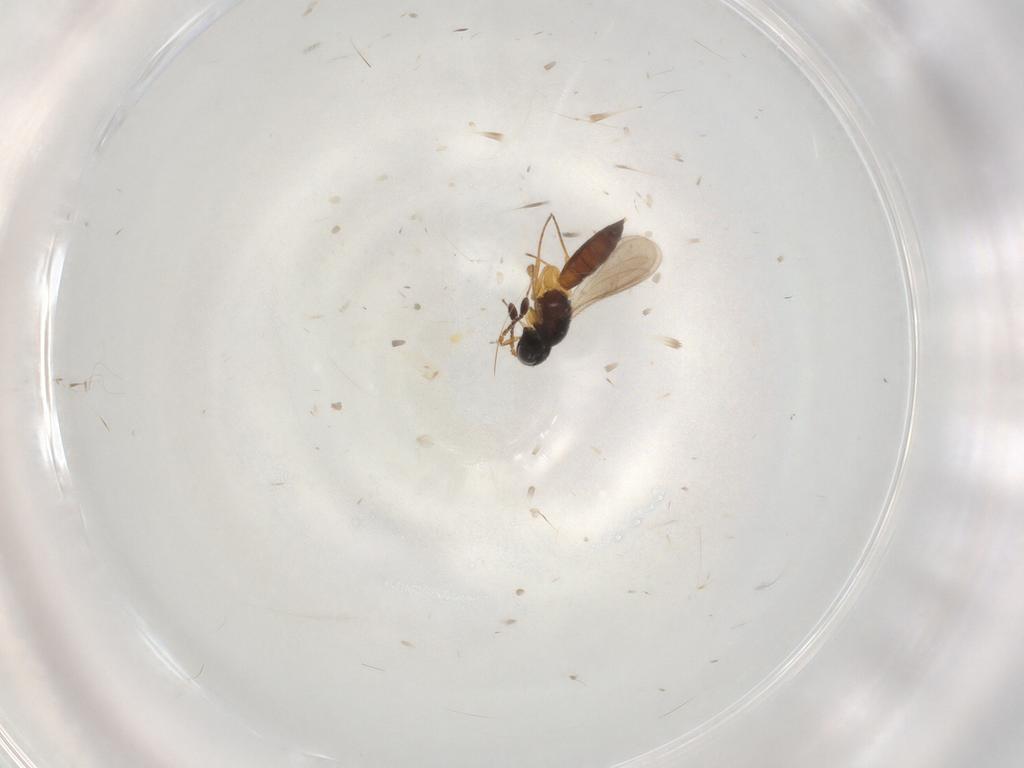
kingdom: Animalia
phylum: Arthropoda
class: Insecta
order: Hymenoptera
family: Scelionidae
